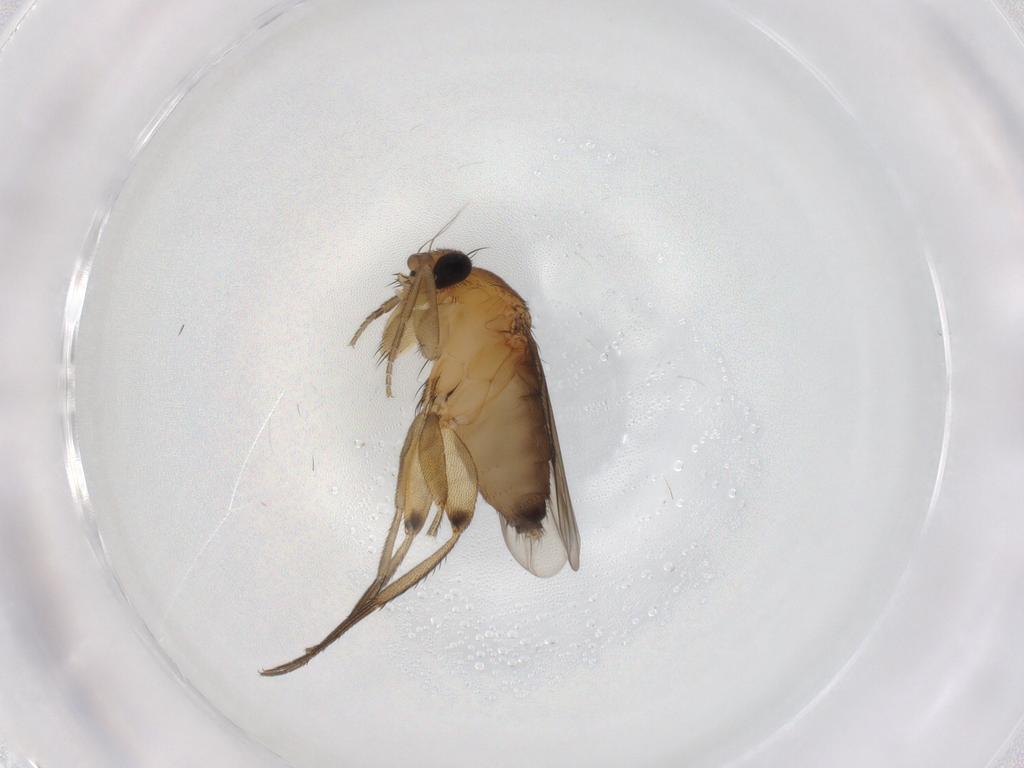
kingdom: Animalia
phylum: Arthropoda
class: Insecta
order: Diptera
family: Phoridae
